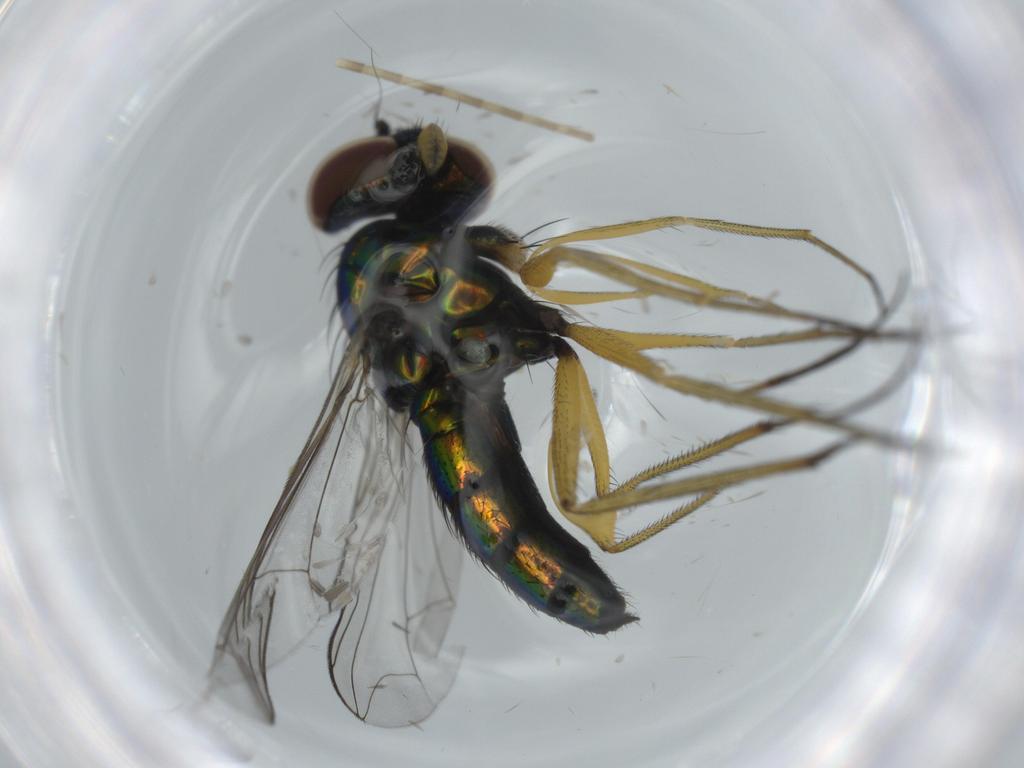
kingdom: Animalia
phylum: Arthropoda
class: Insecta
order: Diptera
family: Dolichopodidae
